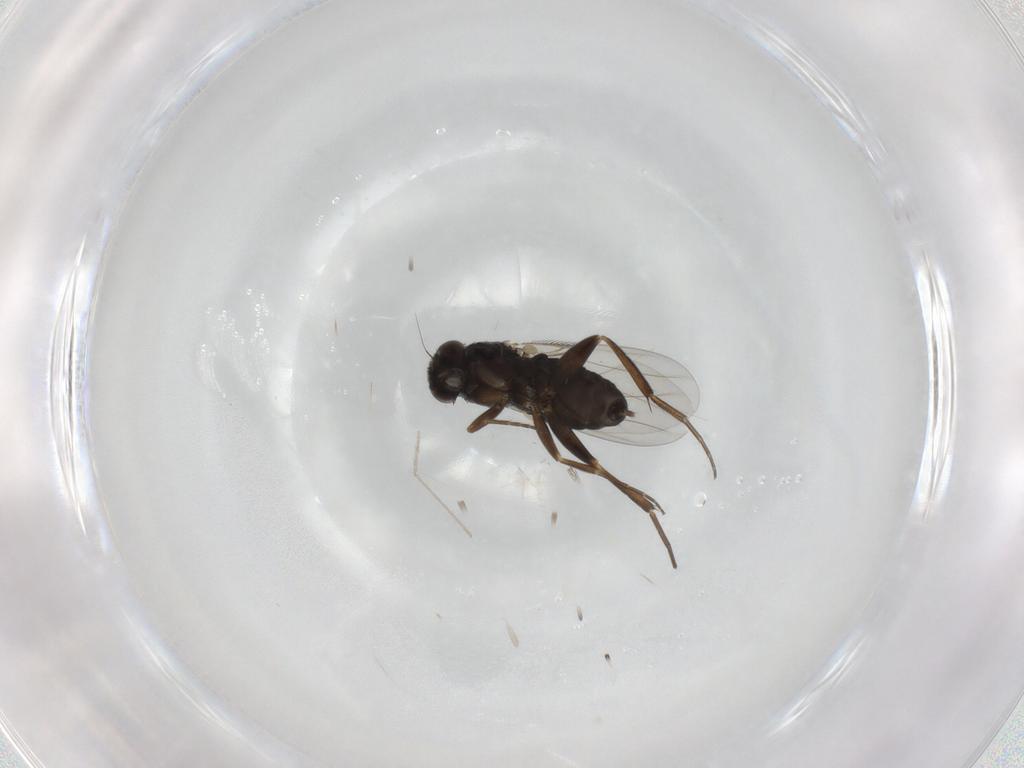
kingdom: Animalia
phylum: Arthropoda
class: Insecta
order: Diptera
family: Phoridae
